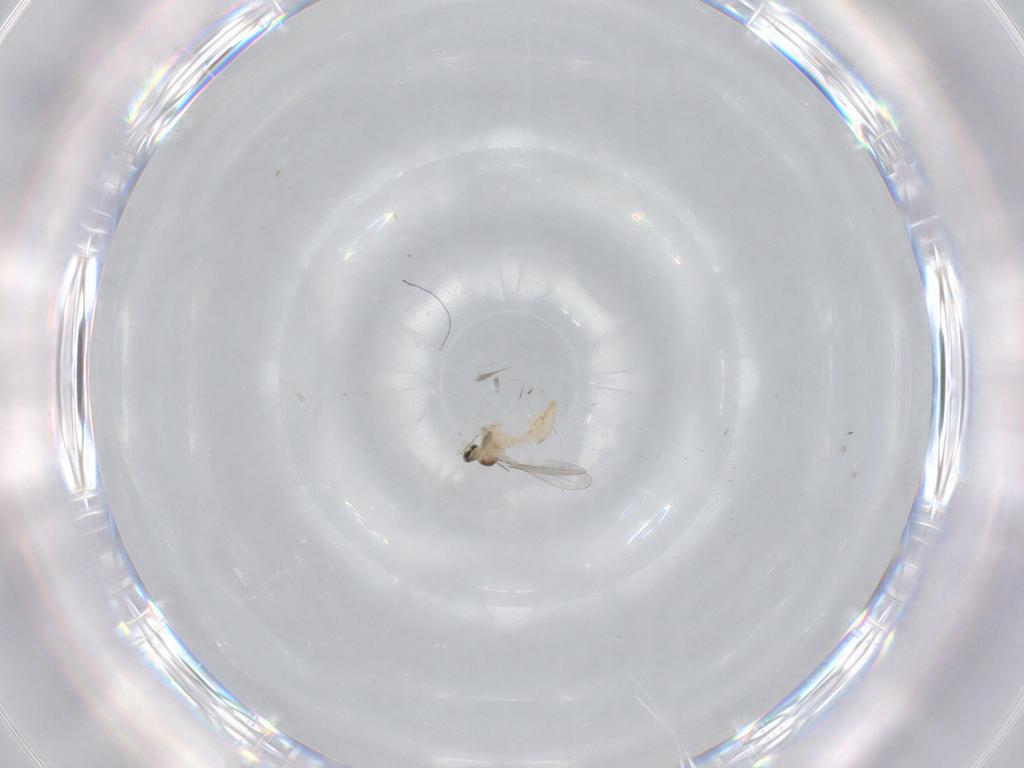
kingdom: Animalia
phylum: Arthropoda
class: Insecta
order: Diptera
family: Cecidomyiidae
